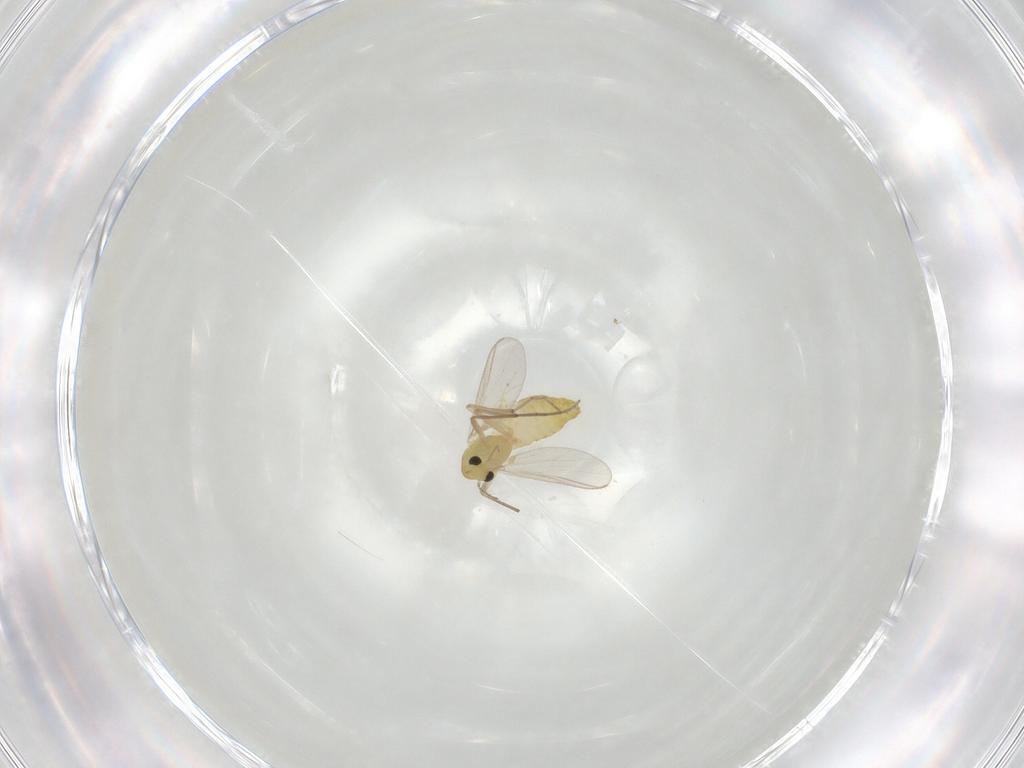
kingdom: Animalia
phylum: Arthropoda
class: Insecta
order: Diptera
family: Chironomidae
